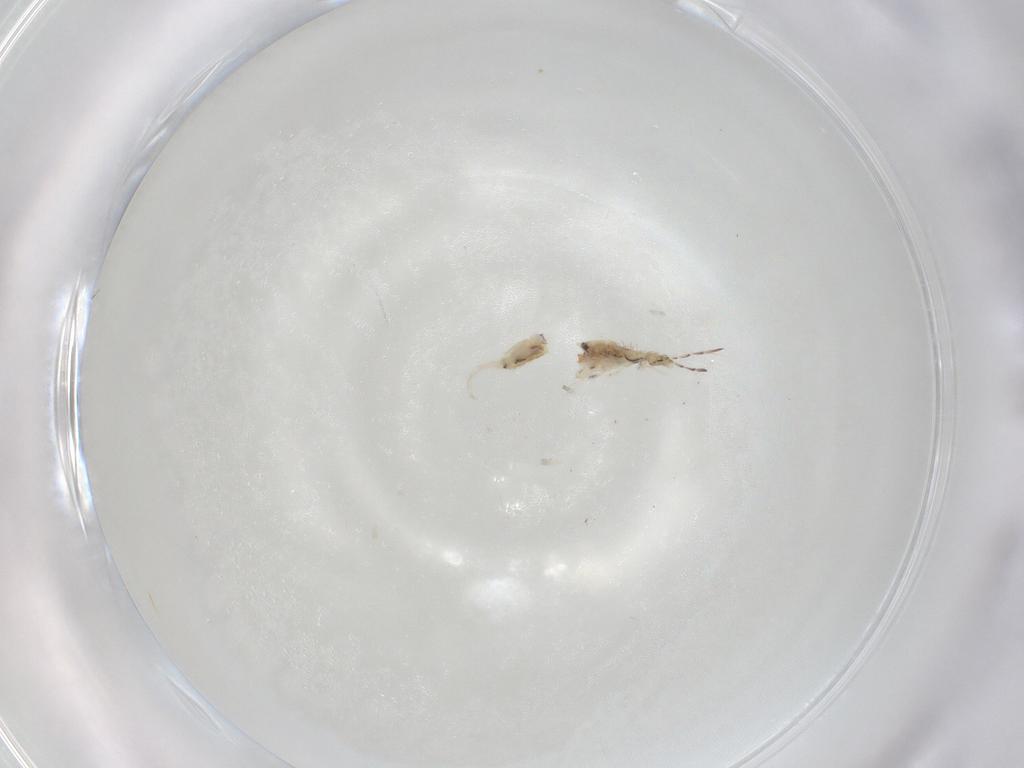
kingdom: Animalia
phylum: Arthropoda
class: Collembola
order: Entomobryomorpha
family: Entomobryidae
